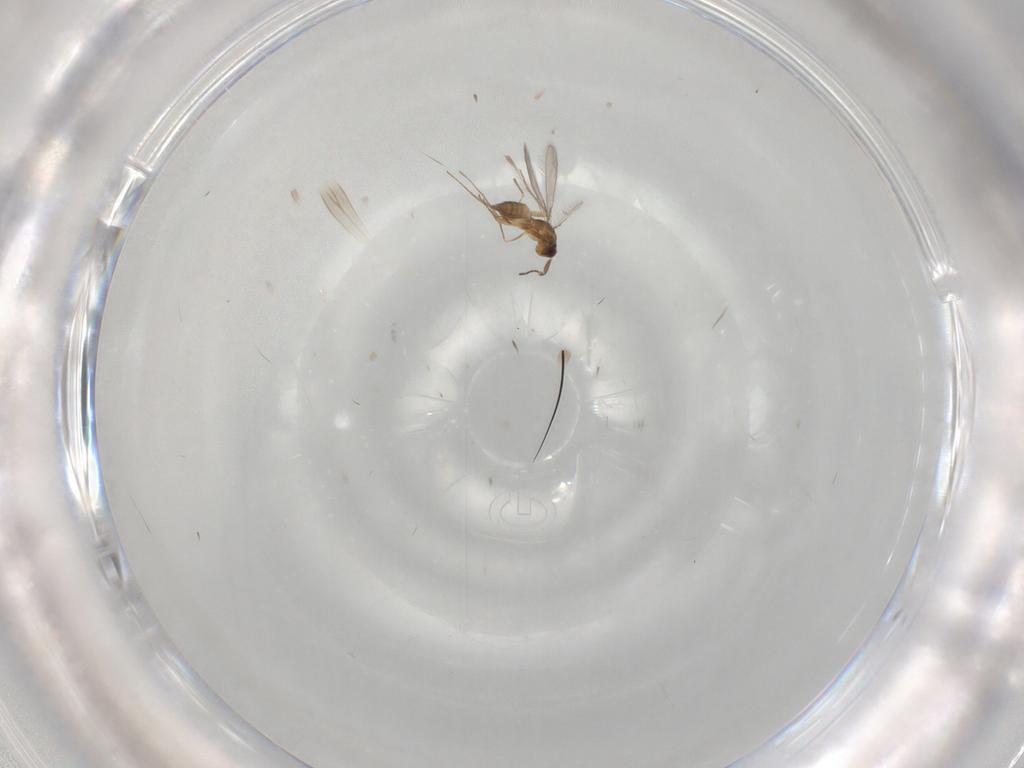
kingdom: Animalia
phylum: Arthropoda
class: Insecta
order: Hymenoptera
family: Mymaridae
